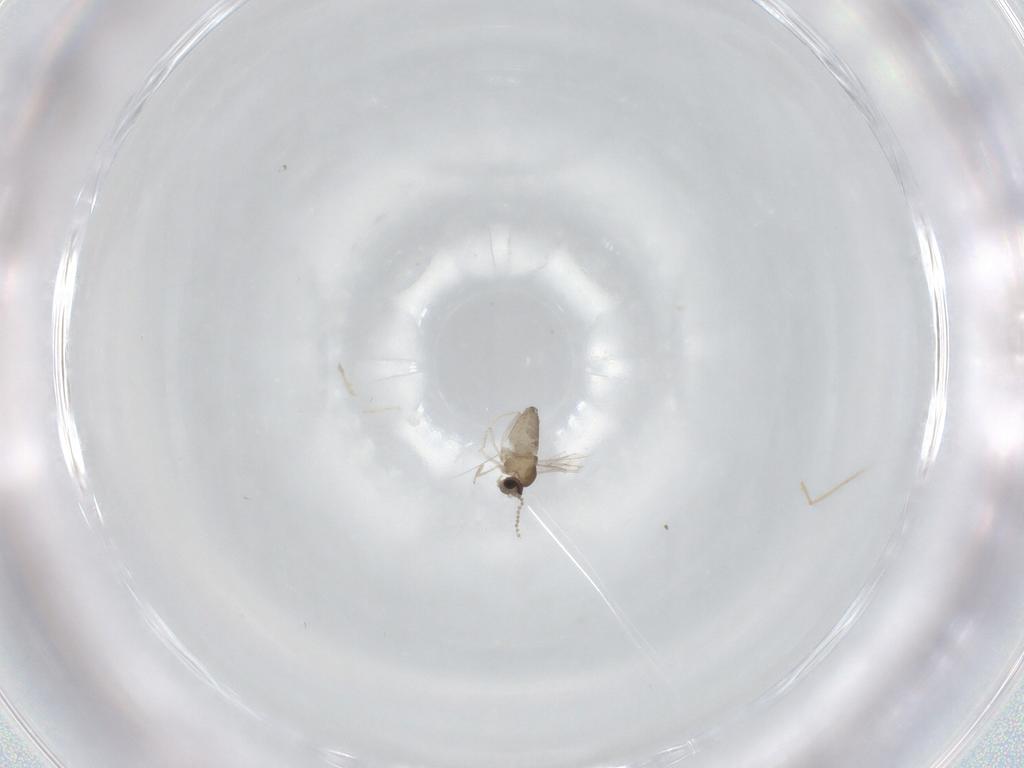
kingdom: Animalia
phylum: Arthropoda
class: Insecta
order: Diptera
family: Cecidomyiidae
